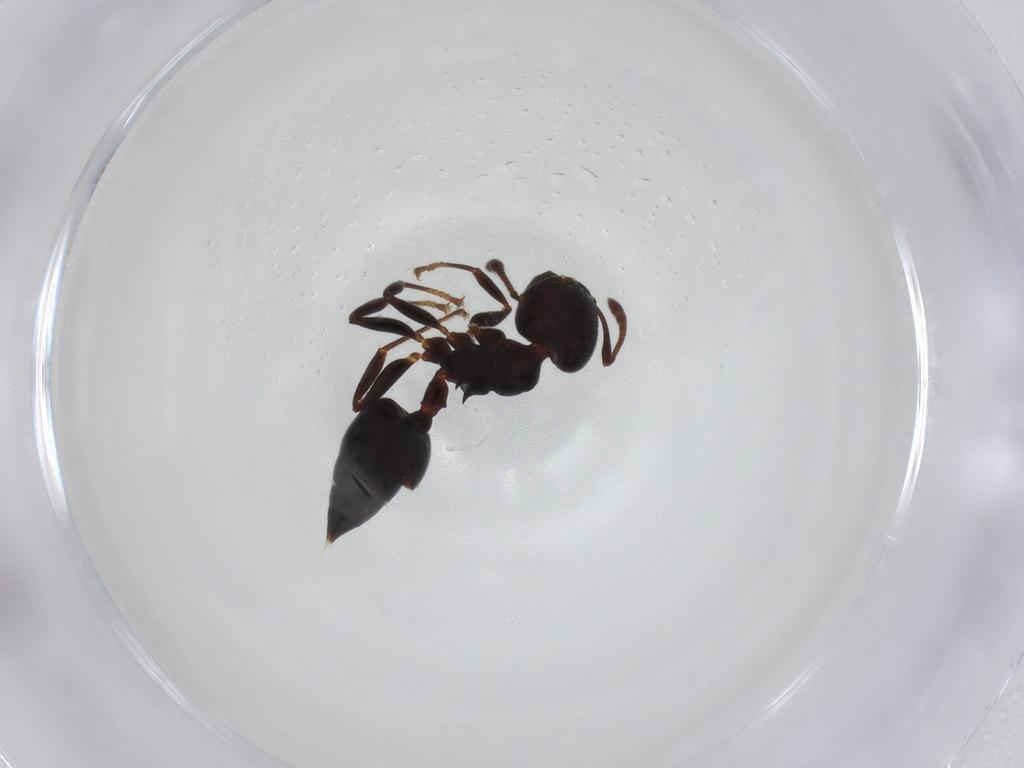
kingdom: Animalia
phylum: Arthropoda
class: Insecta
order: Hymenoptera
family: Formicidae
